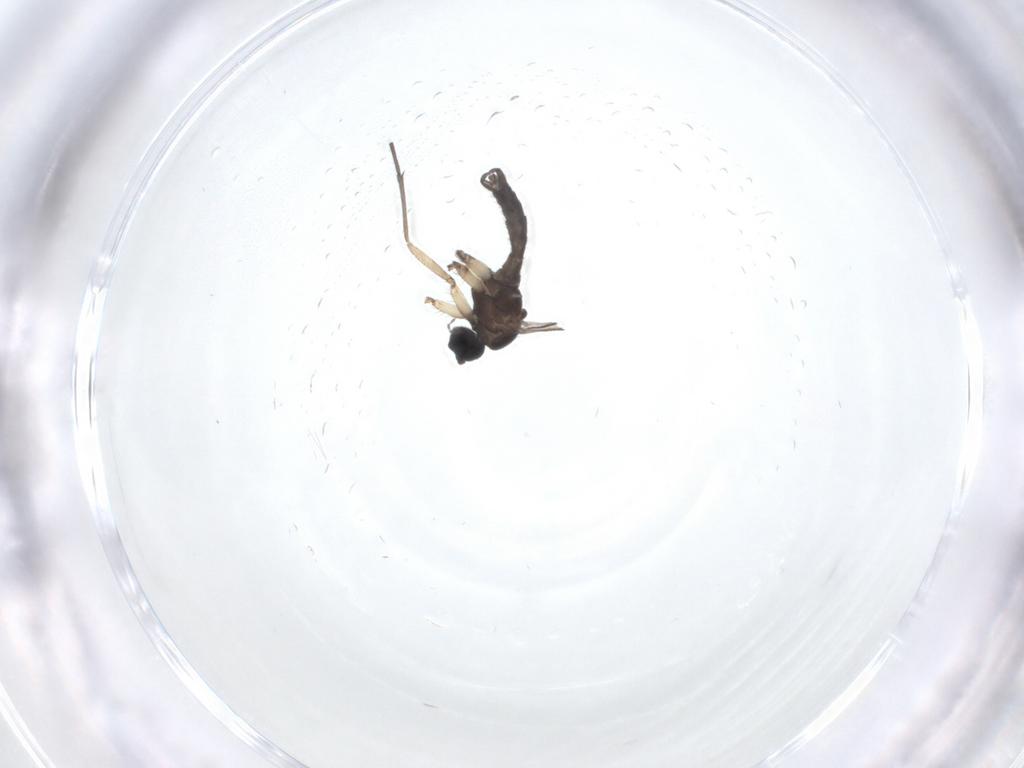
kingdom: Animalia
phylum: Arthropoda
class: Insecta
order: Diptera
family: Sciaridae
